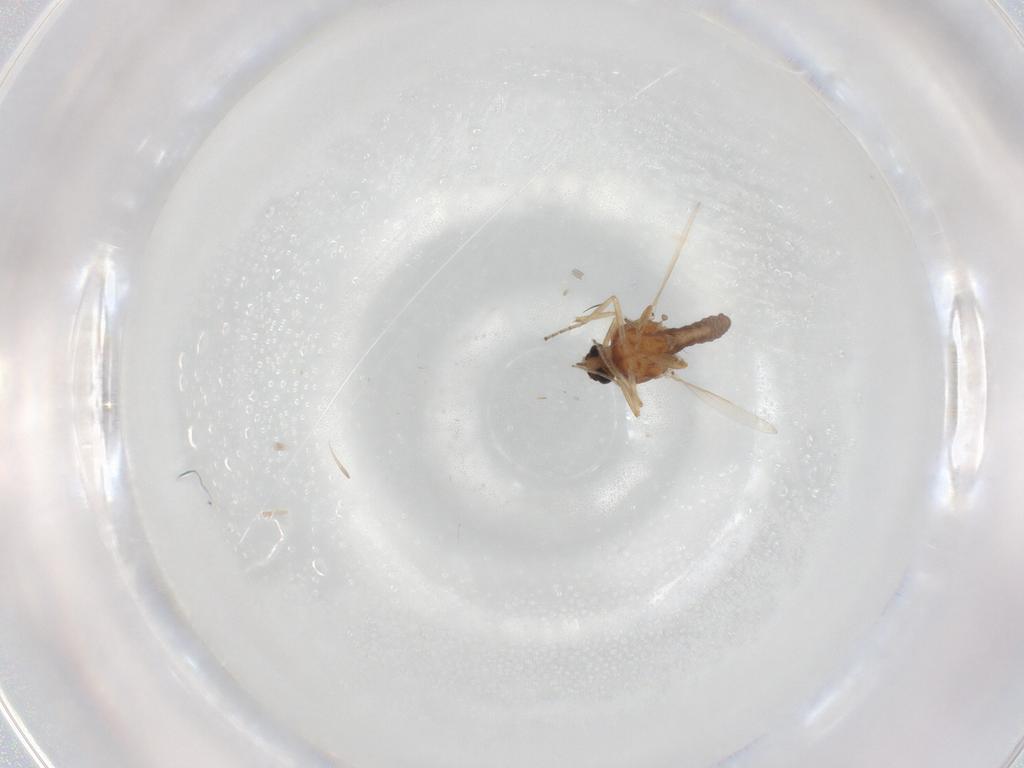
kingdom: Animalia
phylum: Arthropoda
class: Insecta
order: Diptera
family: Ceratopogonidae
